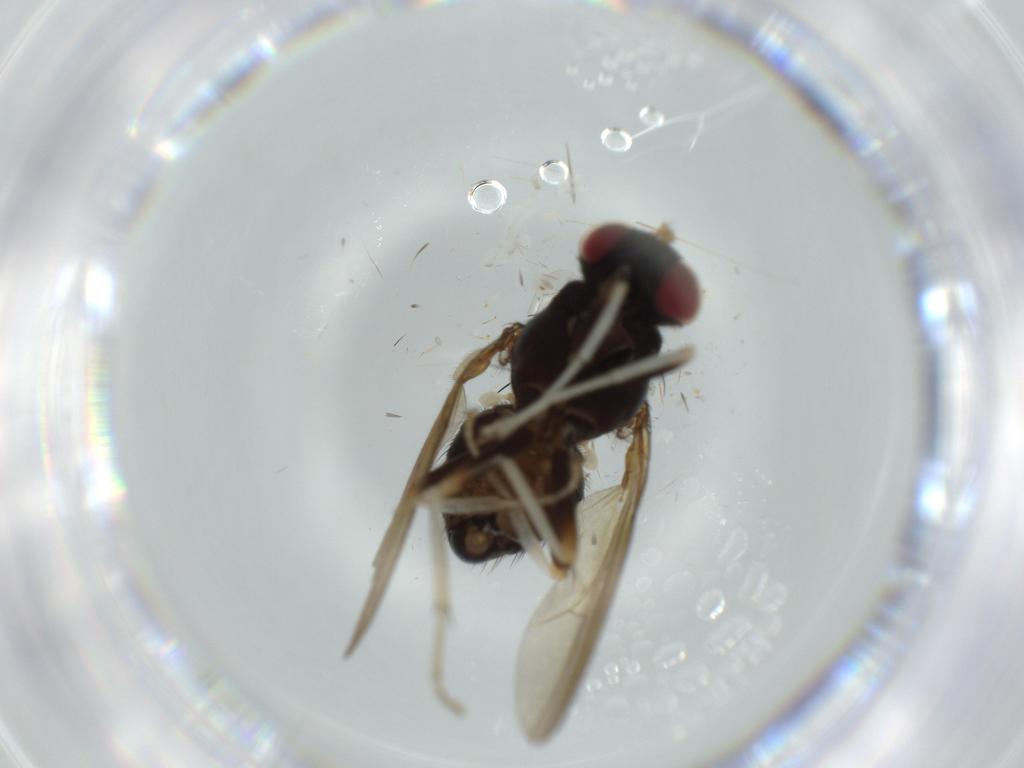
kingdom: Animalia
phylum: Arthropoda
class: Insecta
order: Diptera
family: Lauxaniidae
